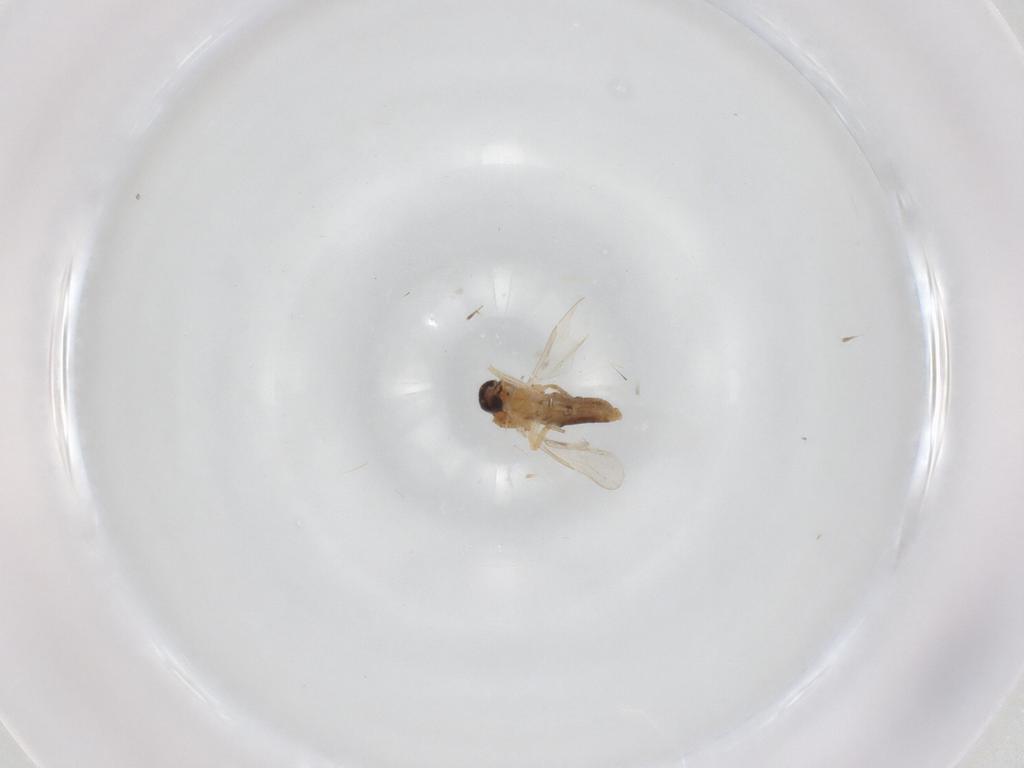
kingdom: Animalia
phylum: Arthropoda
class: Insecta
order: Diptera
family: Ceratopogonidae
